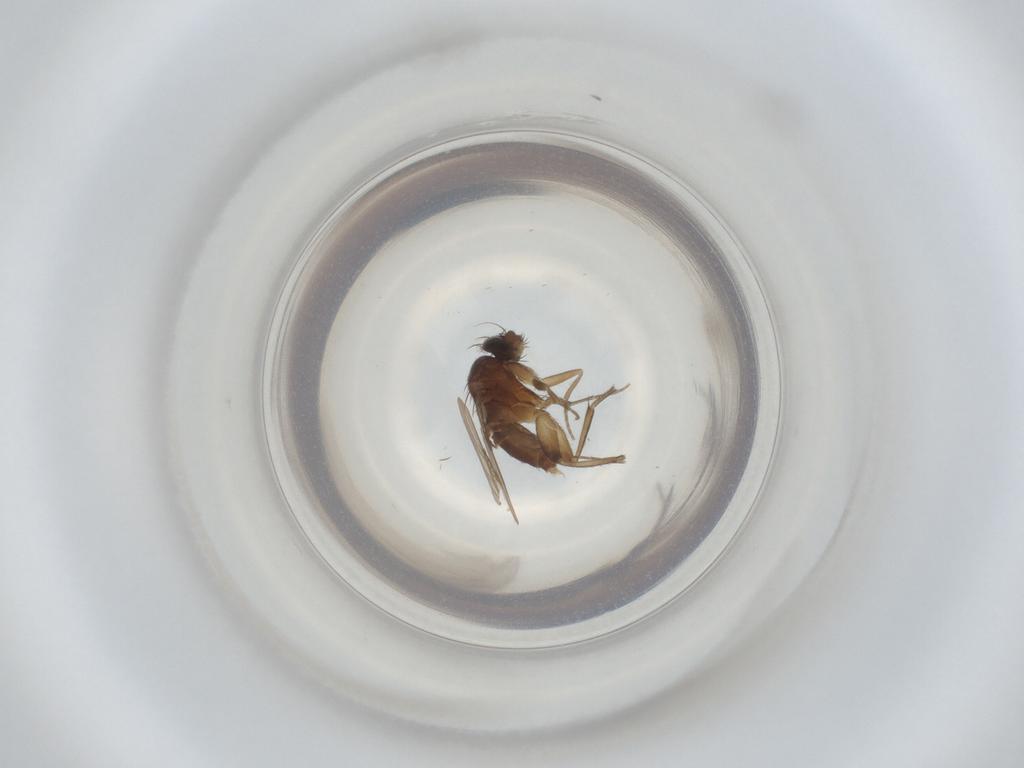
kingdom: Animalia
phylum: Arthropoda
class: Insecta
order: Diptera
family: Phoridae
